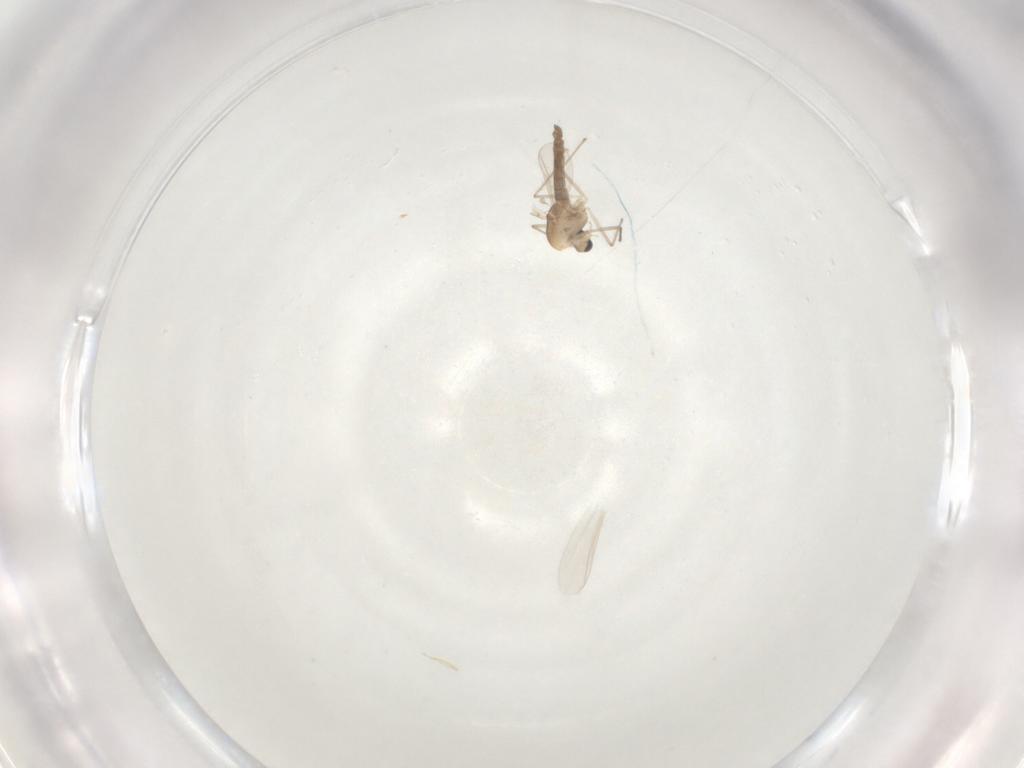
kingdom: Animalia
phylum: Arthropoda
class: Insecta
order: Diptera
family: Chironomidae
